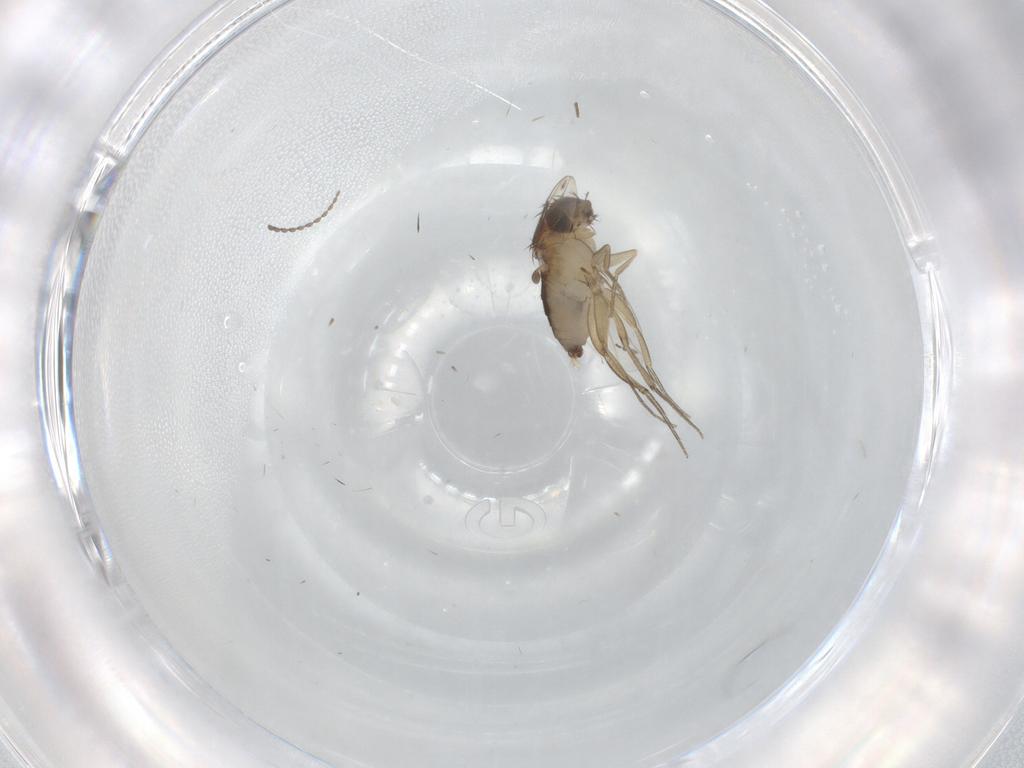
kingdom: Animalia
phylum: Arthropoda
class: Insecta
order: Diptera
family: Phoridae
